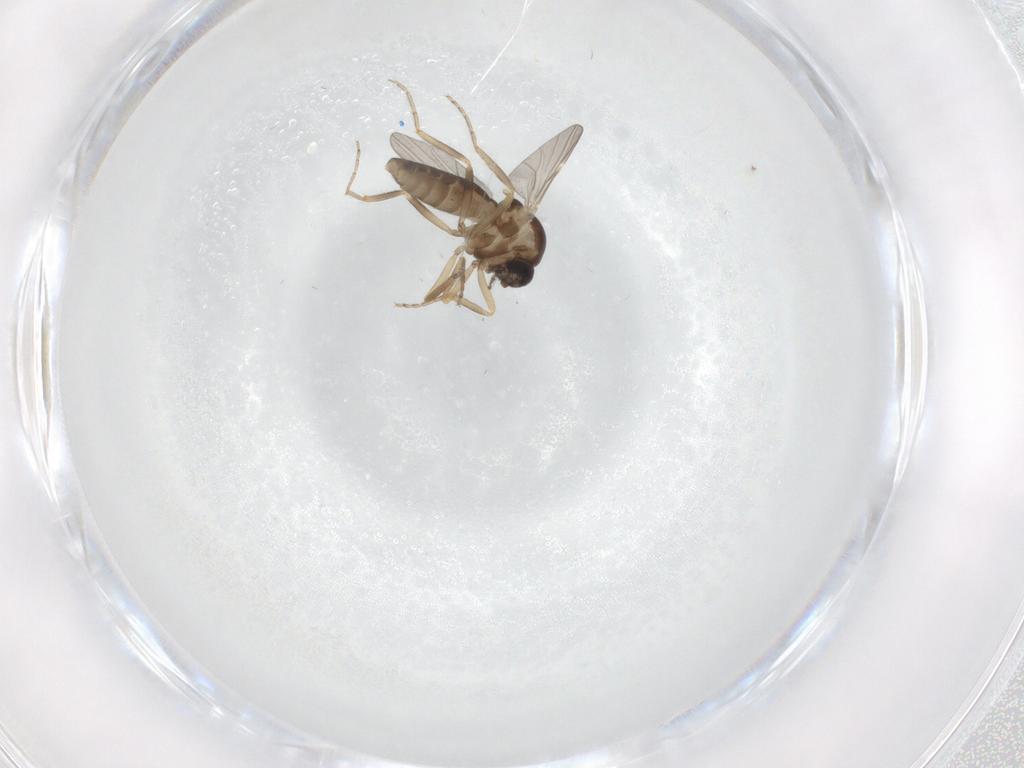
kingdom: Animalia
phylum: Arthropoda
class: Insecta
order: Diptera
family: Ceratopogonidae
